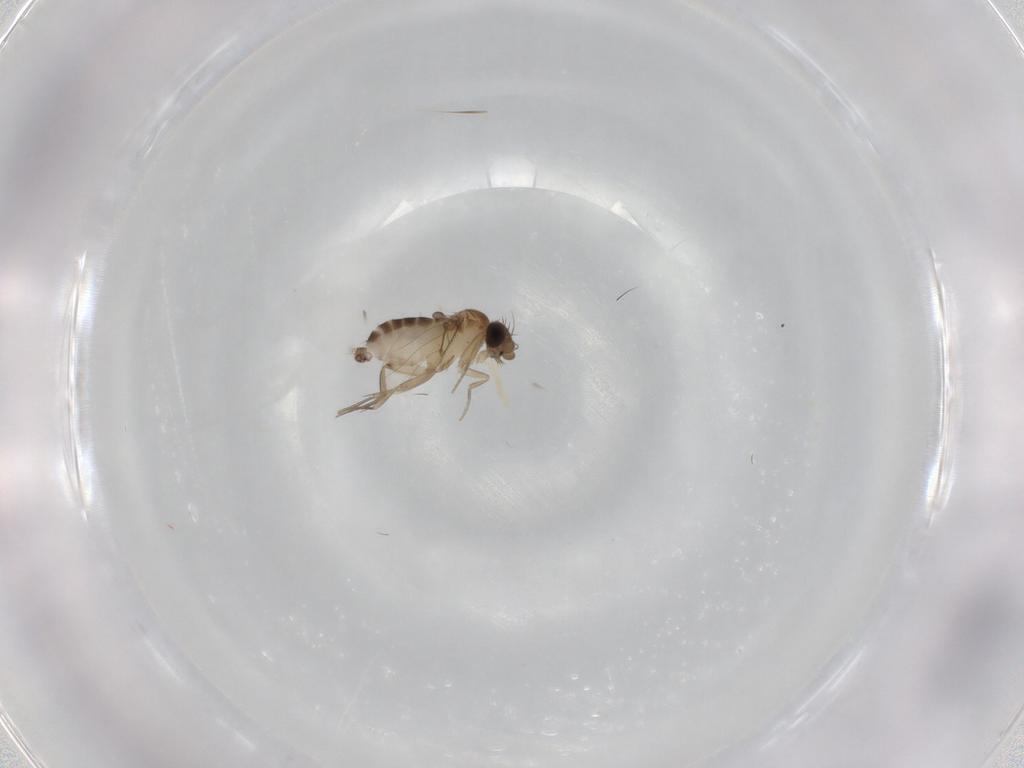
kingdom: Animalia
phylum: Arthropoda
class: Insecta
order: Diptera
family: Phoridae
